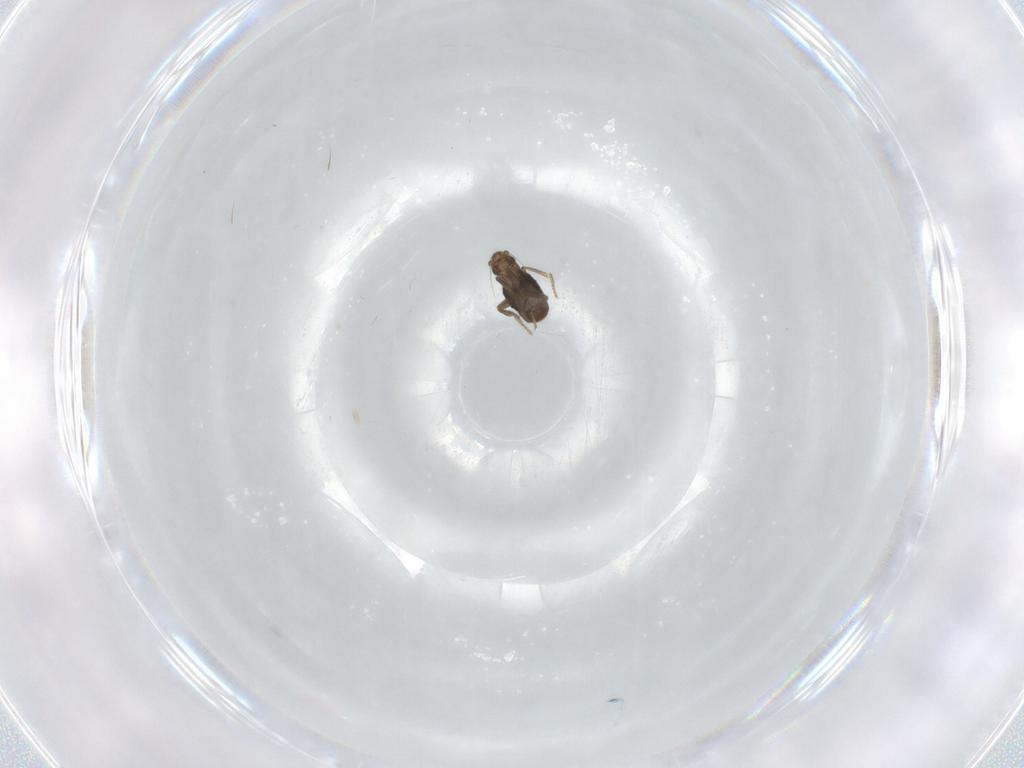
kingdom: Animalia
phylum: Arthropoda
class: Insecta
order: Diptera
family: Phoridae
